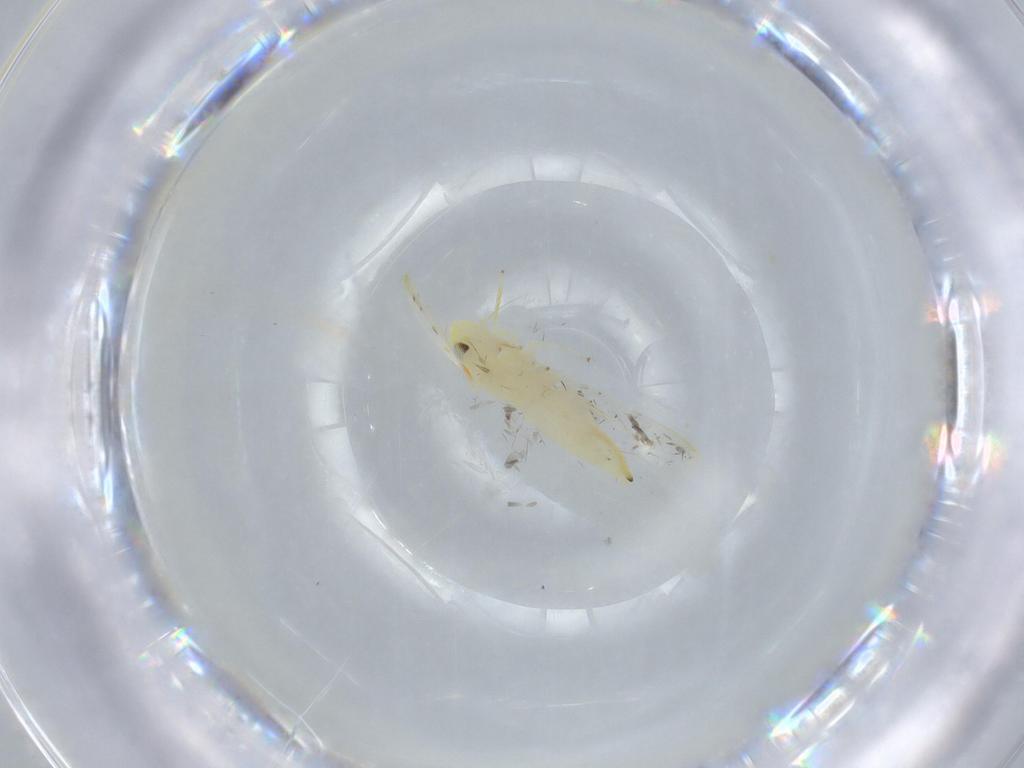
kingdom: Animalia
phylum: Arthropoda
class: Insecta
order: Hemiptera
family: Cicadellidae
